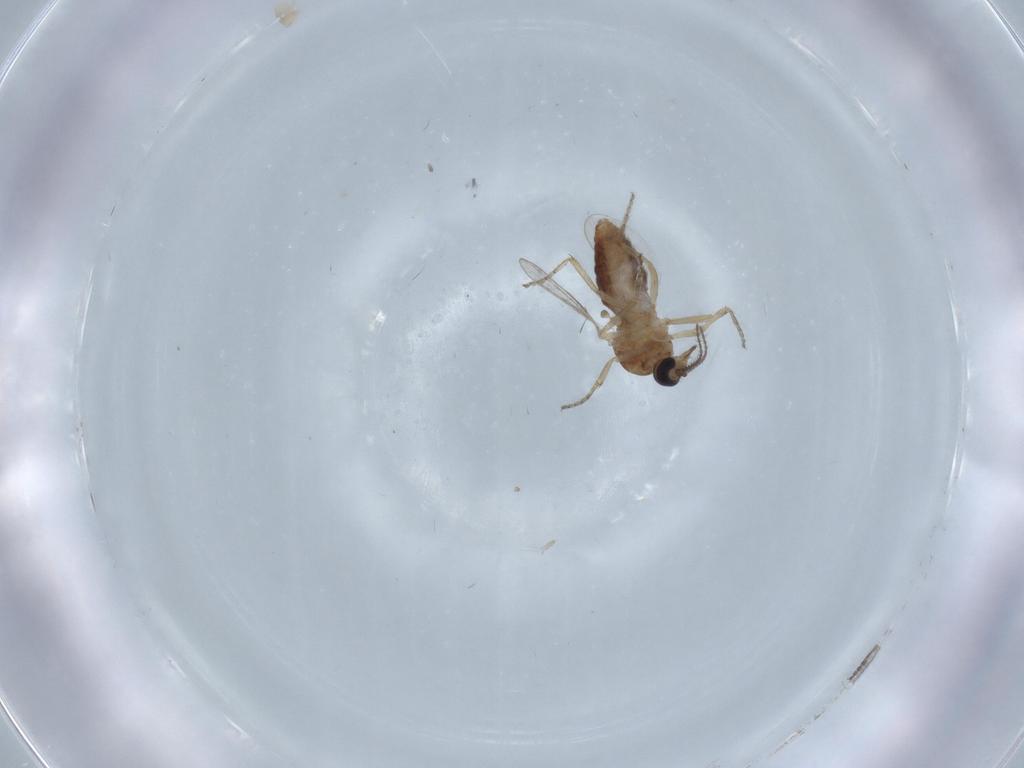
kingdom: Animalia
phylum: Arthropoda
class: Insecta
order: Diptera
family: Ceratopogonidae
